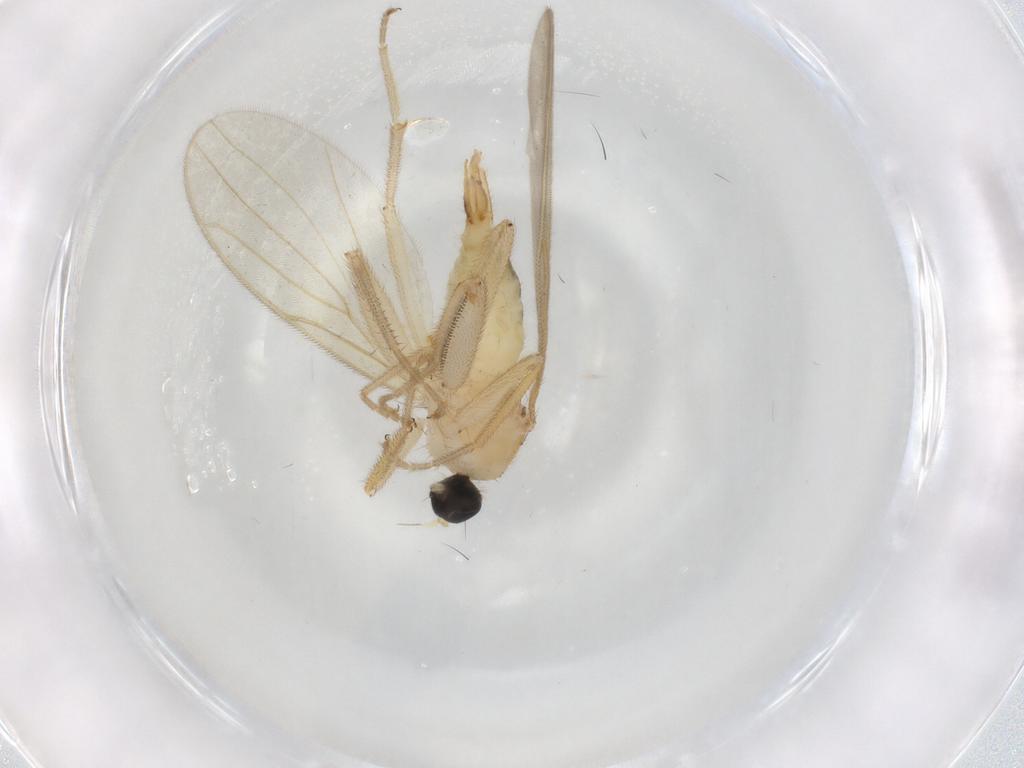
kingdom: Animalia
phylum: Arthropoda
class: Insecta
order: Diptera
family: Hybotidae
